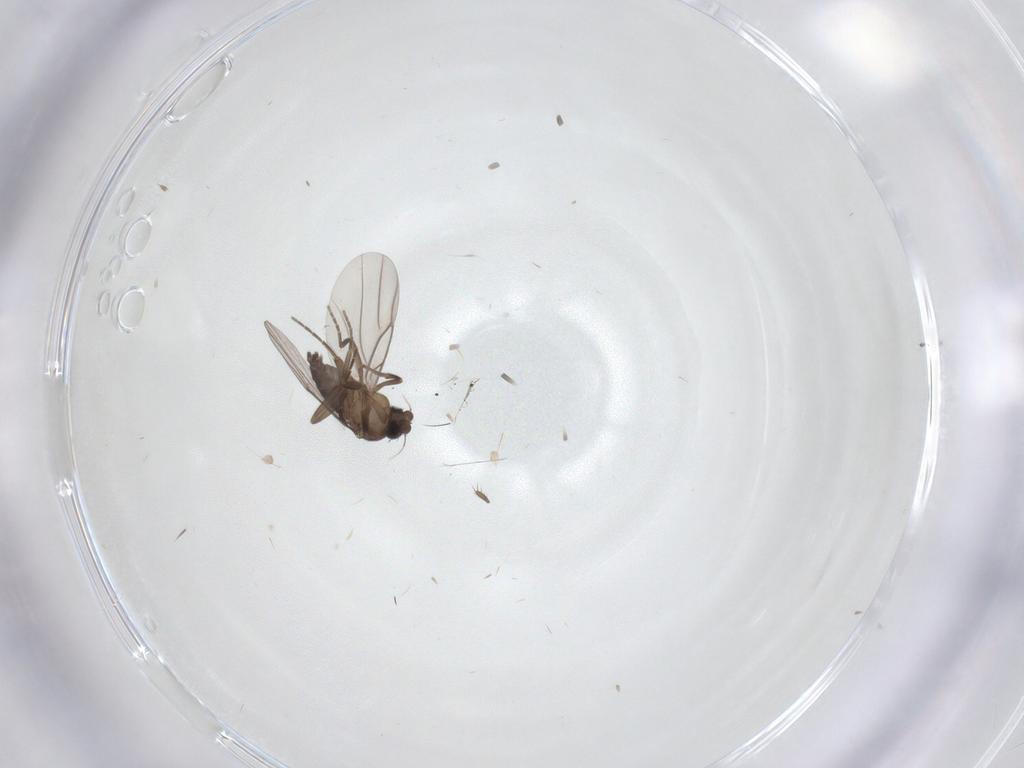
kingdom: Animalia
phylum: Arthropoda
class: Insecta
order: Diptera
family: Phoridae
